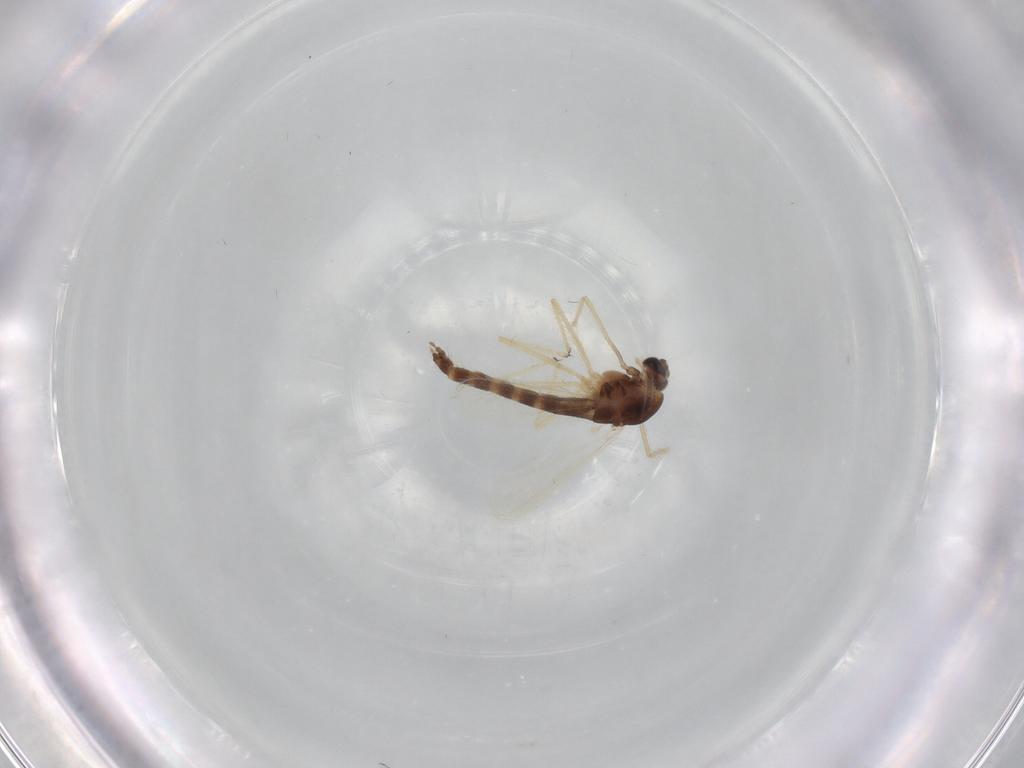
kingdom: Animalia
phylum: Arthropoda
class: Insecta
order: Diptera
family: Chironomidae
